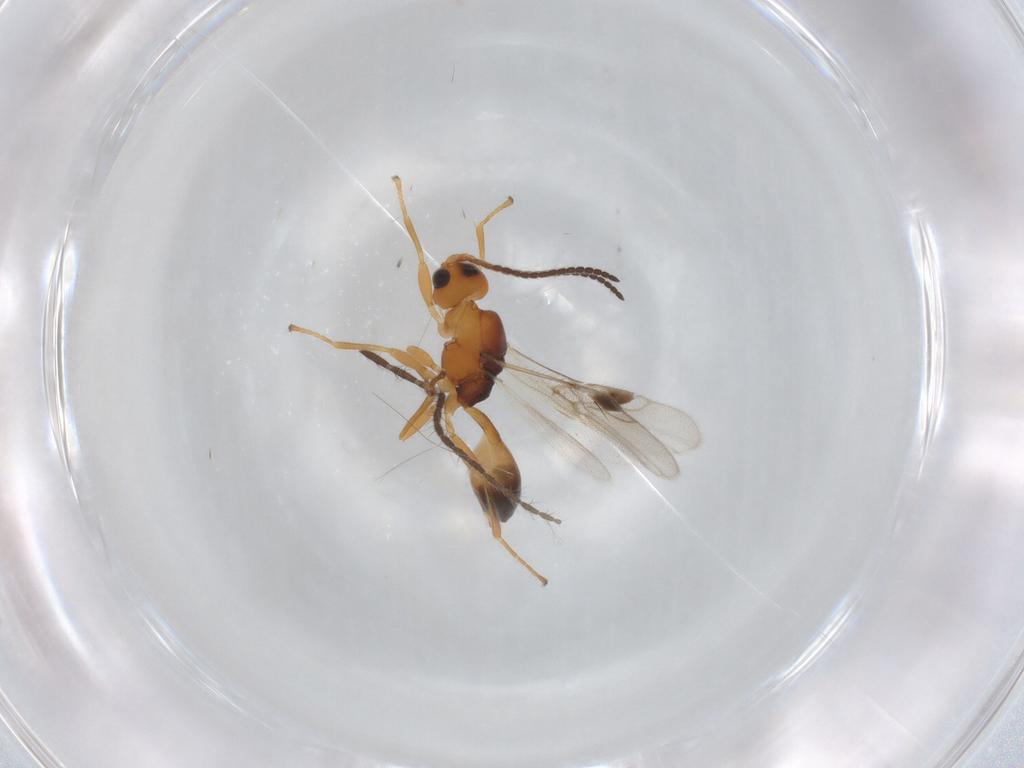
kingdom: Animalia
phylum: Arthropoda
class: Insecta
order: Hymenoptera
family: Braconidae
